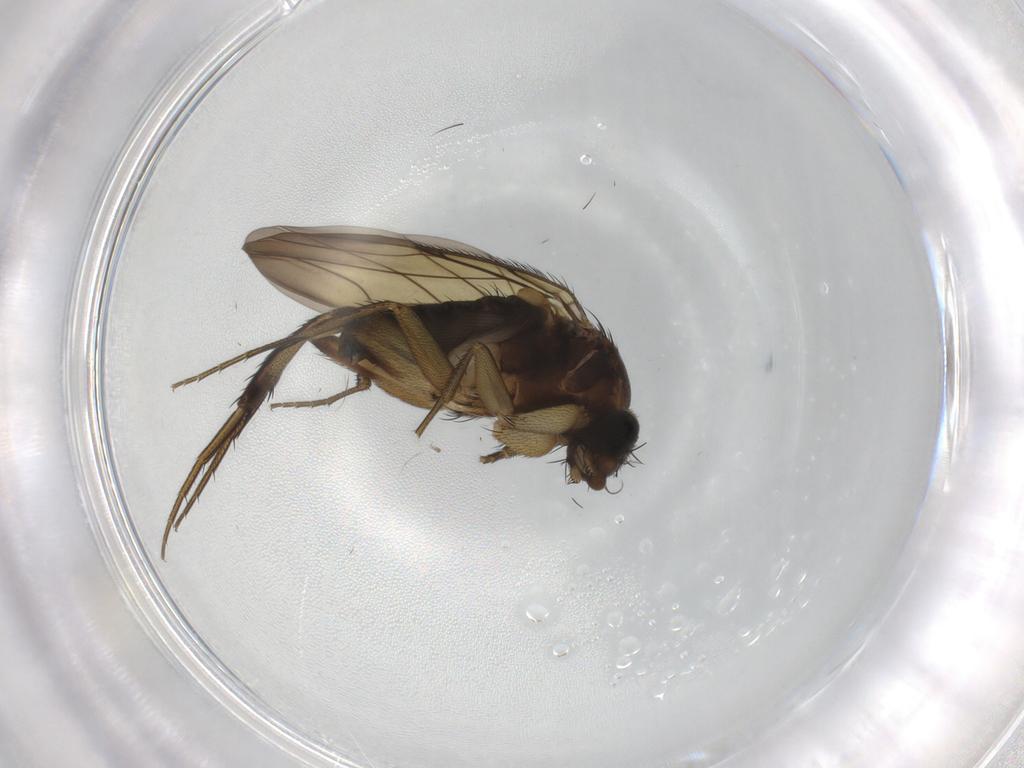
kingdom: Animalia
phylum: Arthropoda
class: Insecta
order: Diptera
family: Phoridae
